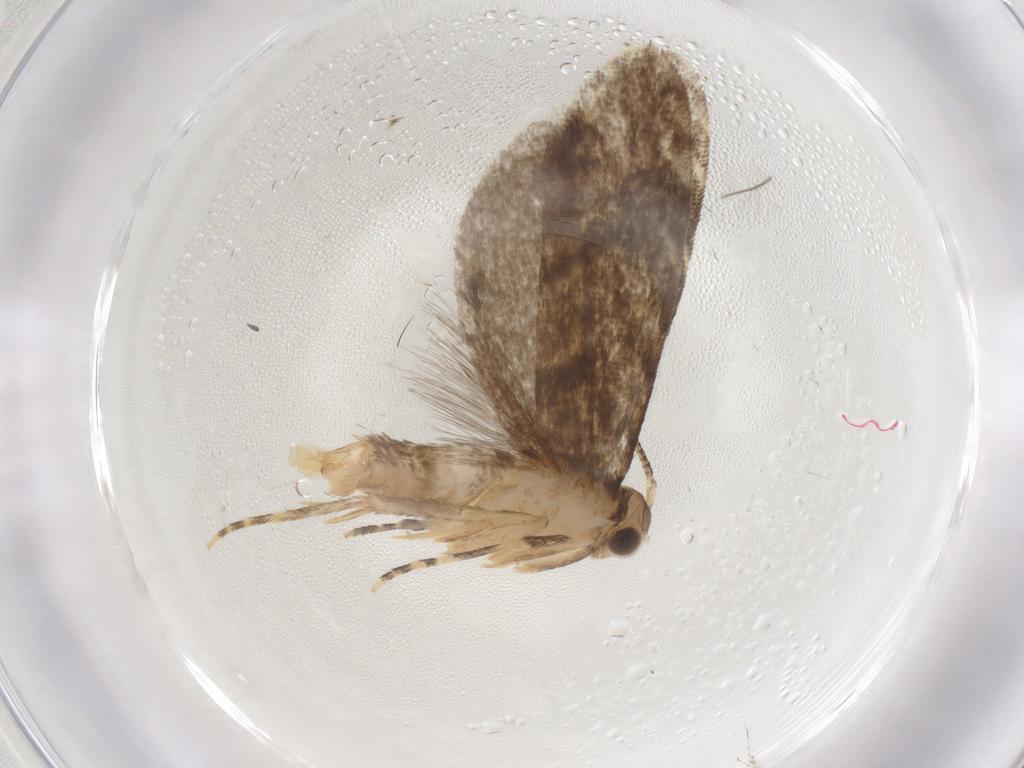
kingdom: Animalia
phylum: Arthropoda
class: Insecta
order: Lepidoptera
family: Tineidae
